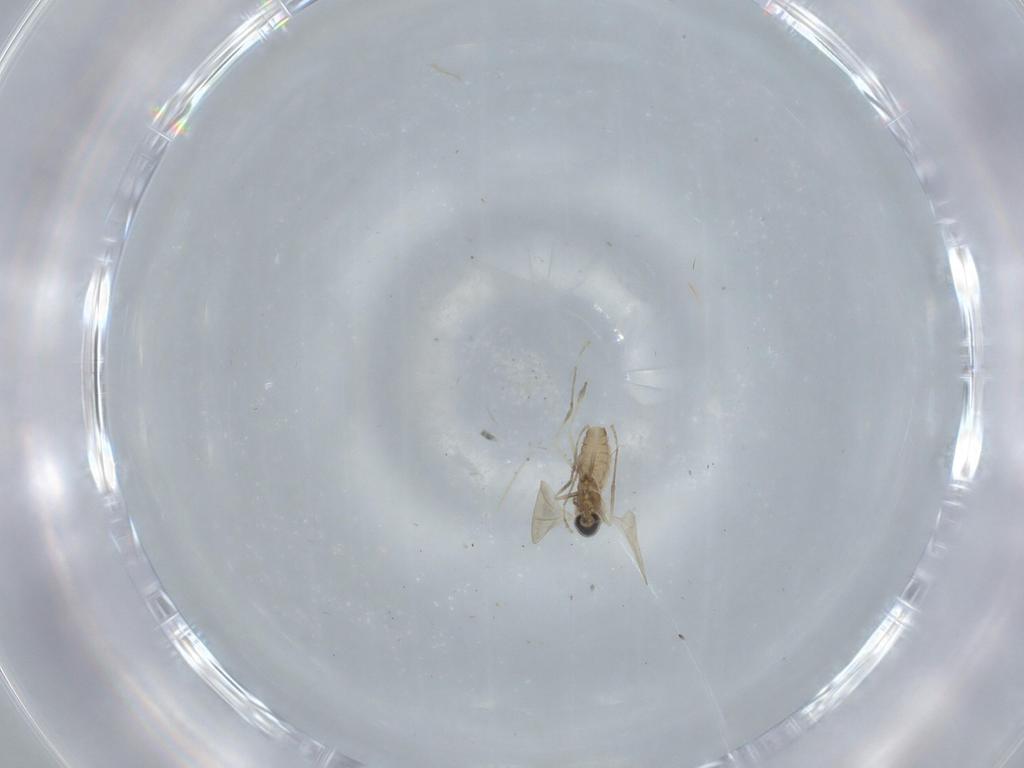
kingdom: Animalia
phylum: Arthropoda
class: Insecta
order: Diptera
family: Cecidomyiidae
